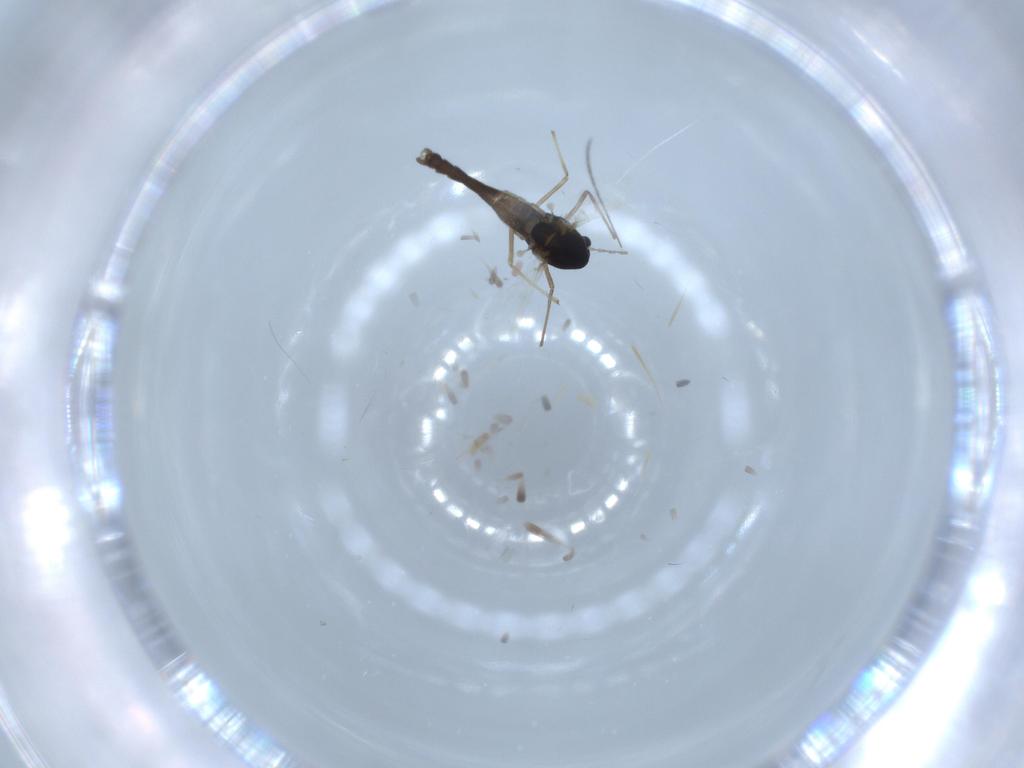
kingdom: Animalia
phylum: Arthropoda
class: Insecta
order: Diptera
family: Chironomidae
